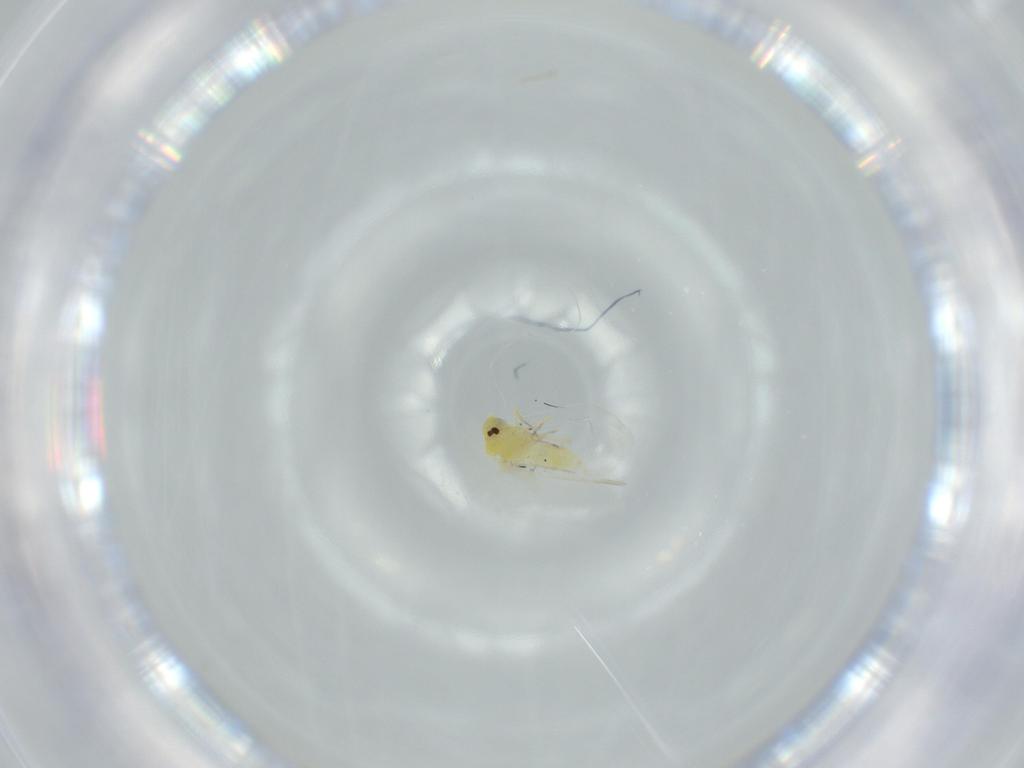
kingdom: Animalia
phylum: Arthropoda
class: Insecta
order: Hemiptera
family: Aleyrodidae
